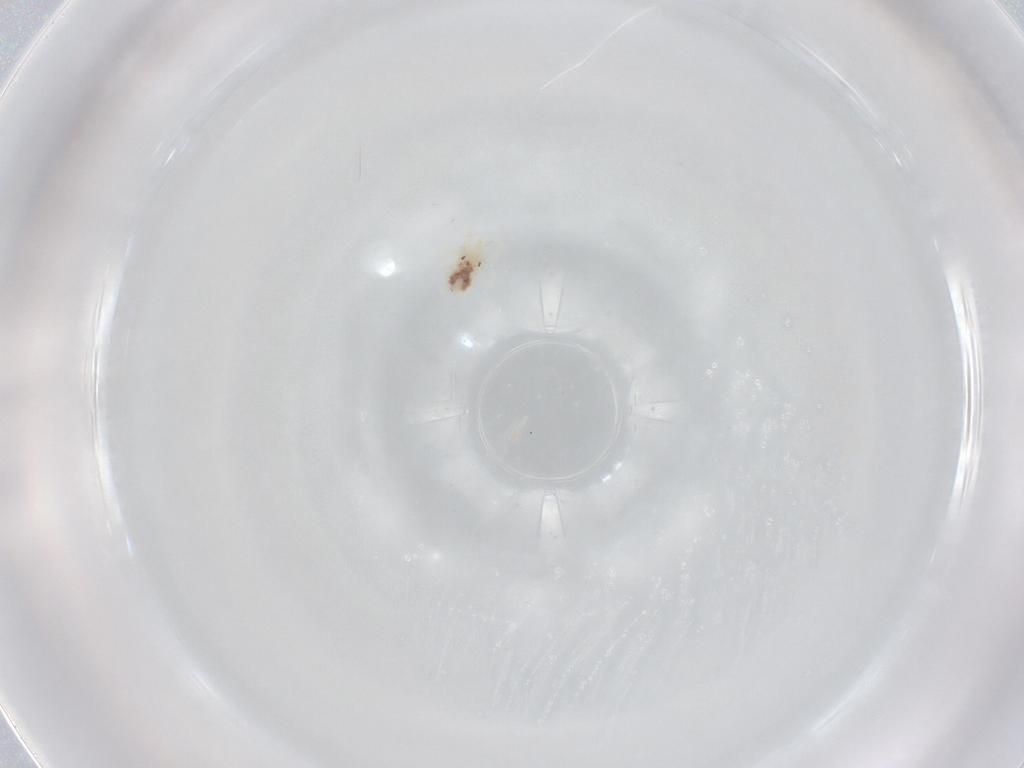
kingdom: Animalia
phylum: Arthropoda
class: Arachnida
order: Trombidiformes
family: Anystidae
